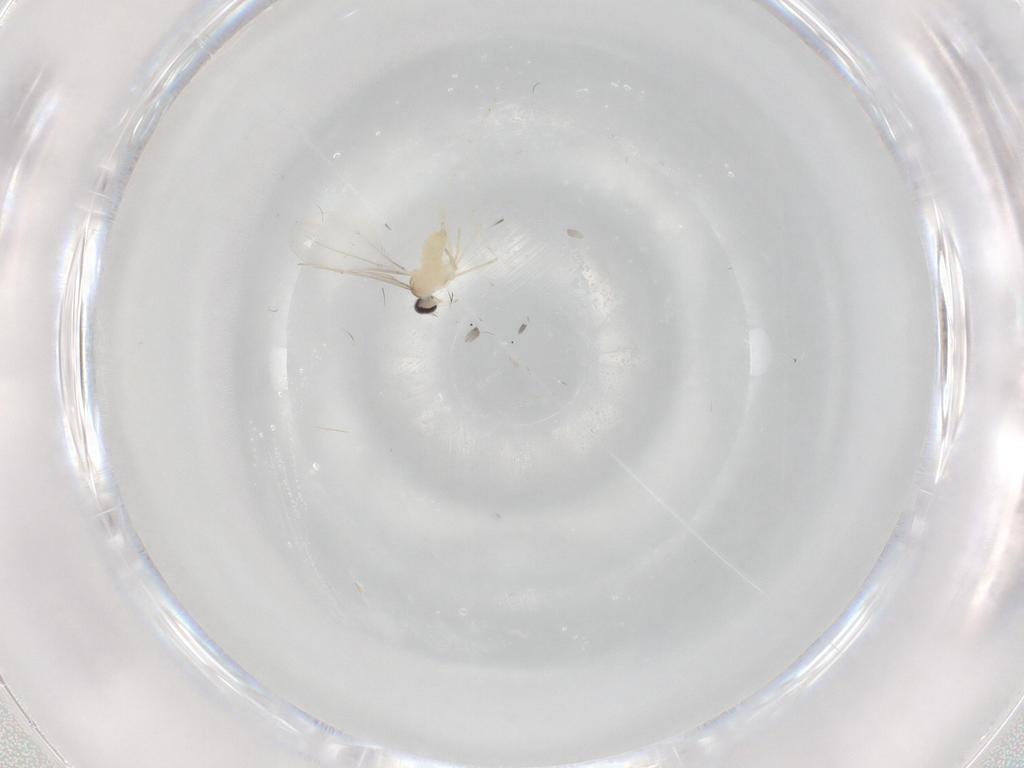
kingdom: Animalia
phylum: Arthropoda
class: Insecta
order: Diptera
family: Cecidomyiidae
